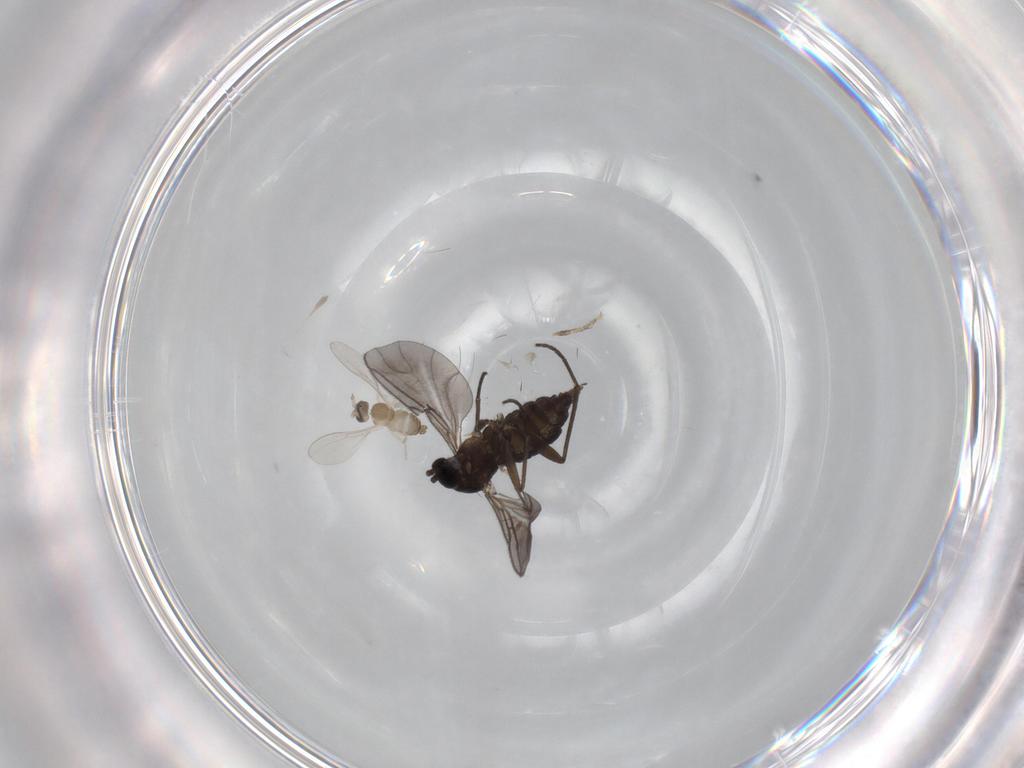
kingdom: Animalia
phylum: Arthropoda
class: Insecta
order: Diptera
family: Sciaridae
